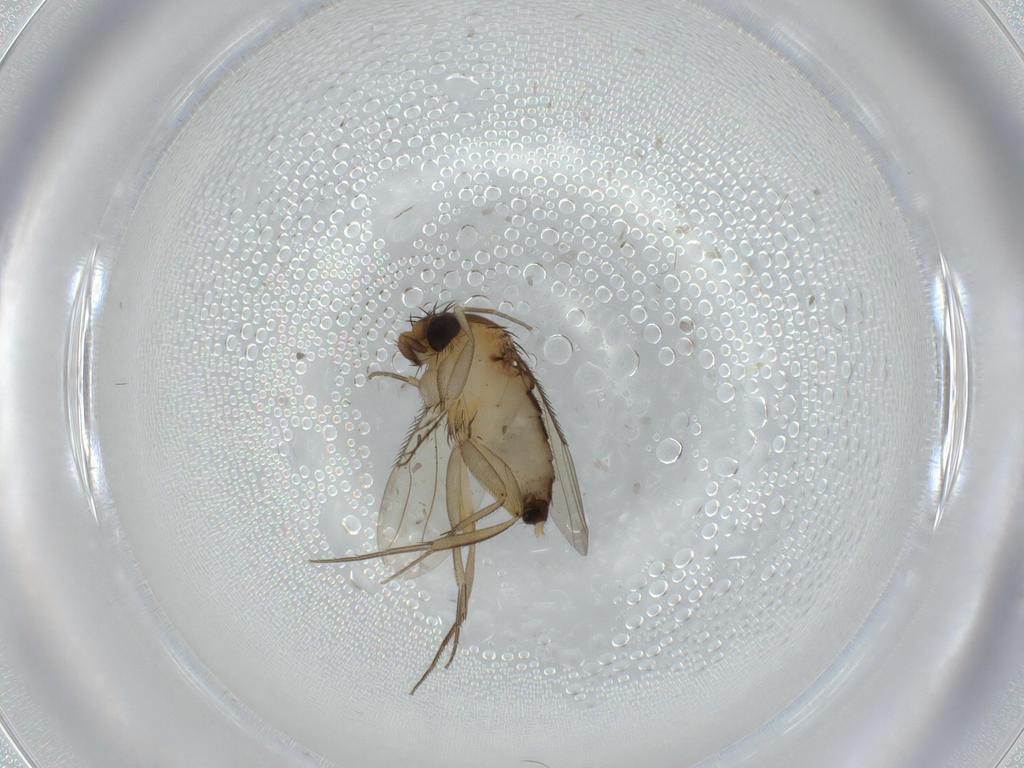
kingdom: Animalia
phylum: Arthropoda
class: Insecta
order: Diptera
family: Phoridae
